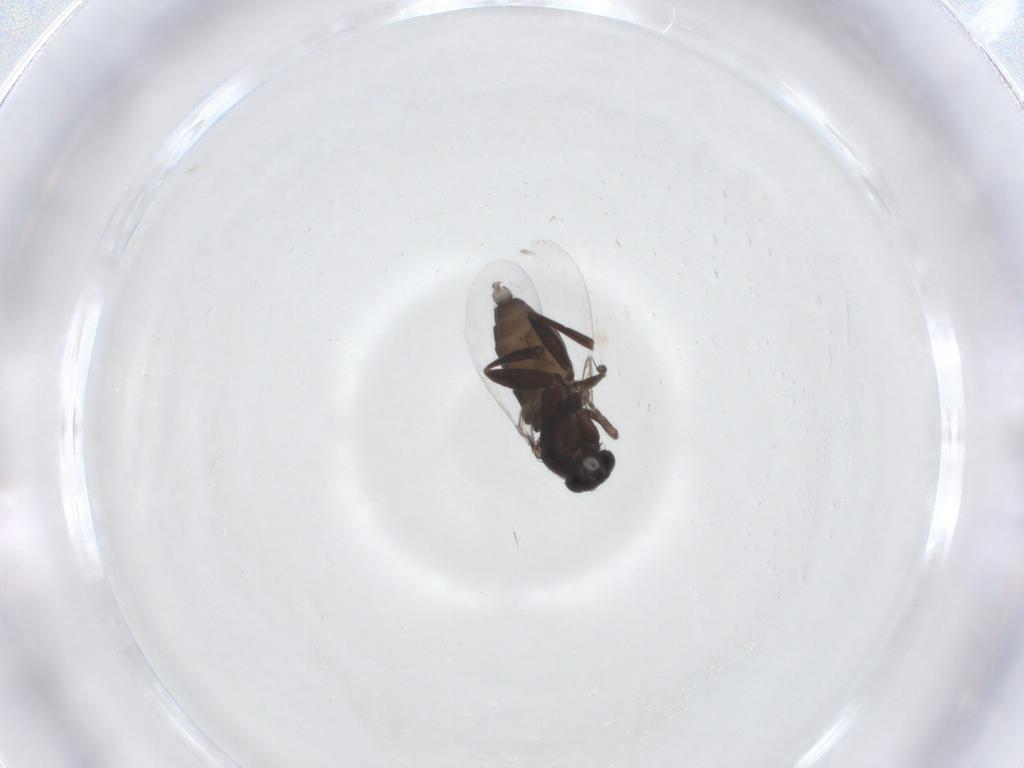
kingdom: Animalia
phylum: Arthropoda
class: Insecta
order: Diptera
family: Phoridae
